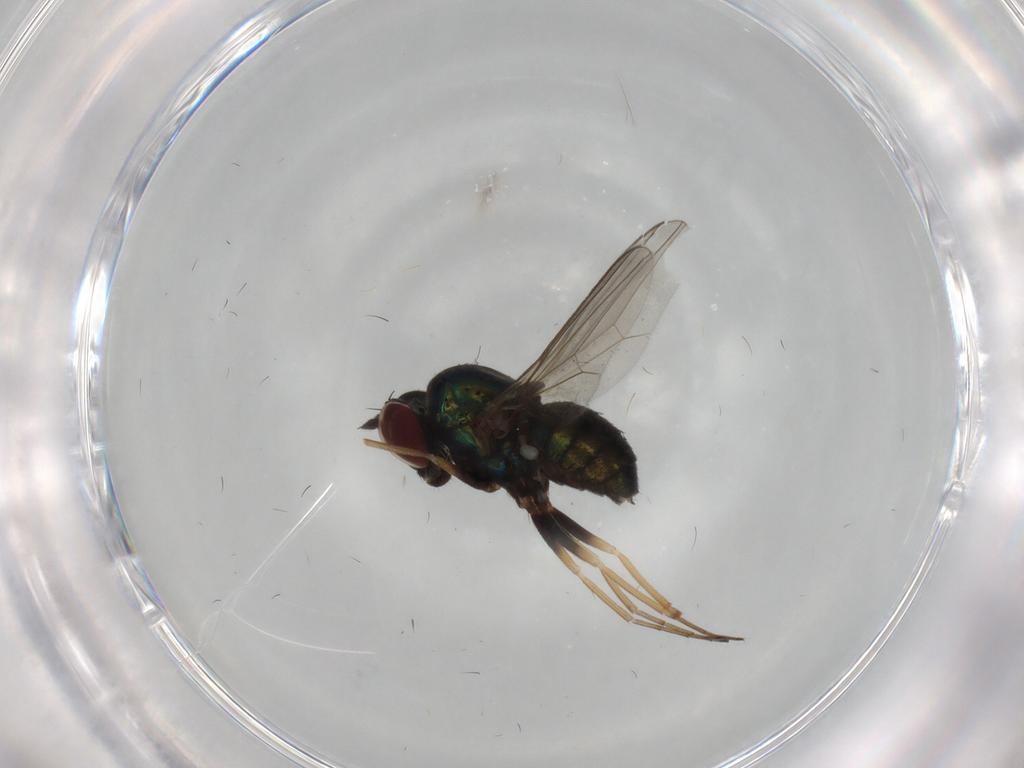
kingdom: Animalia
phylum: Arthropoda
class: Insecta
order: Diptera
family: Dolichopodidae
